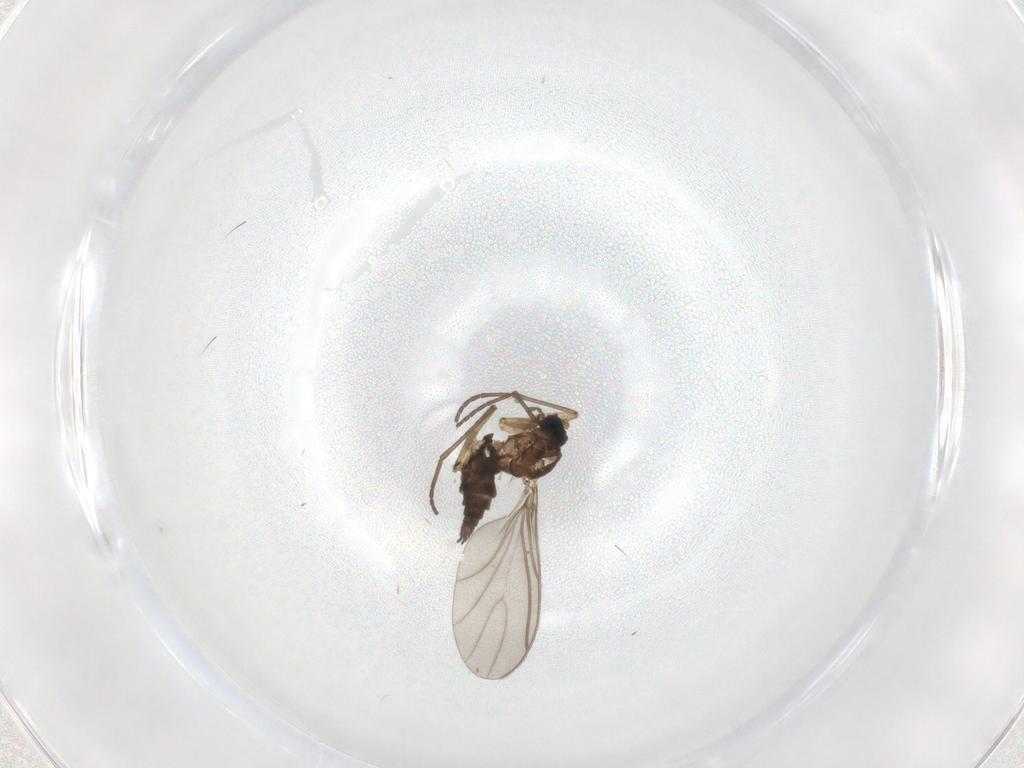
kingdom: Animalia
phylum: Arthropoda
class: Insecta
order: Diptera
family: Sciaridae
